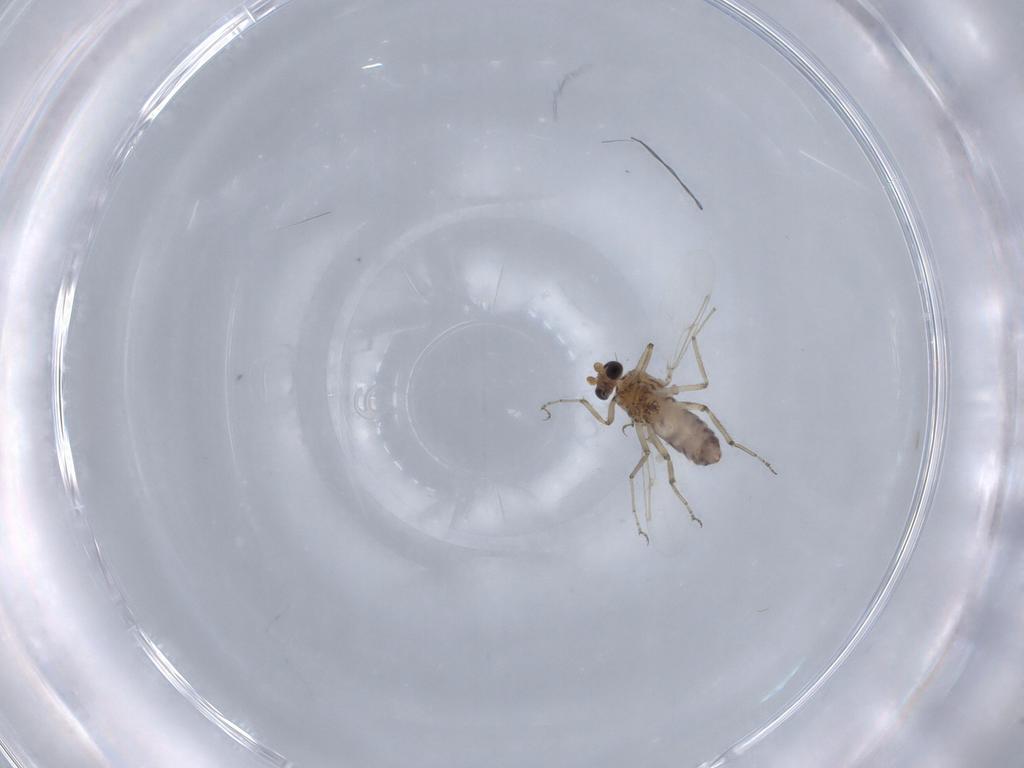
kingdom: Animalia
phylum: Arthropoda
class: Insecta
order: Diptera
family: Ceratopogonidae
